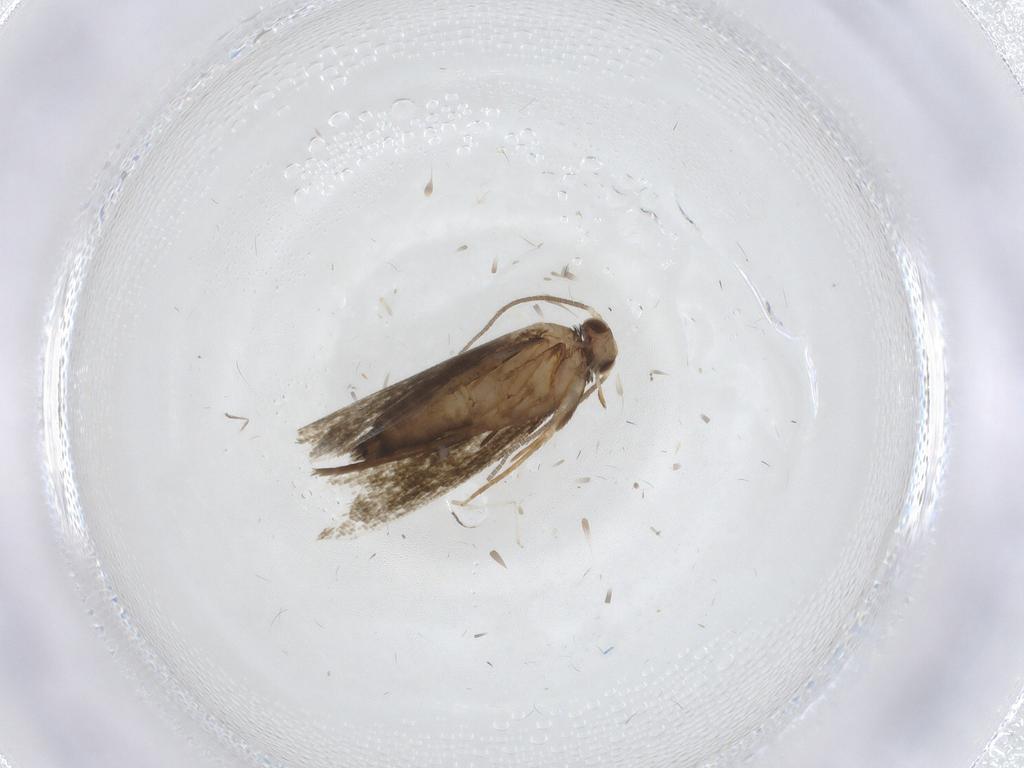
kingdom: Animalia
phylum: Arthropoda
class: Insecta
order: Lepidoptera
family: Tineidae
